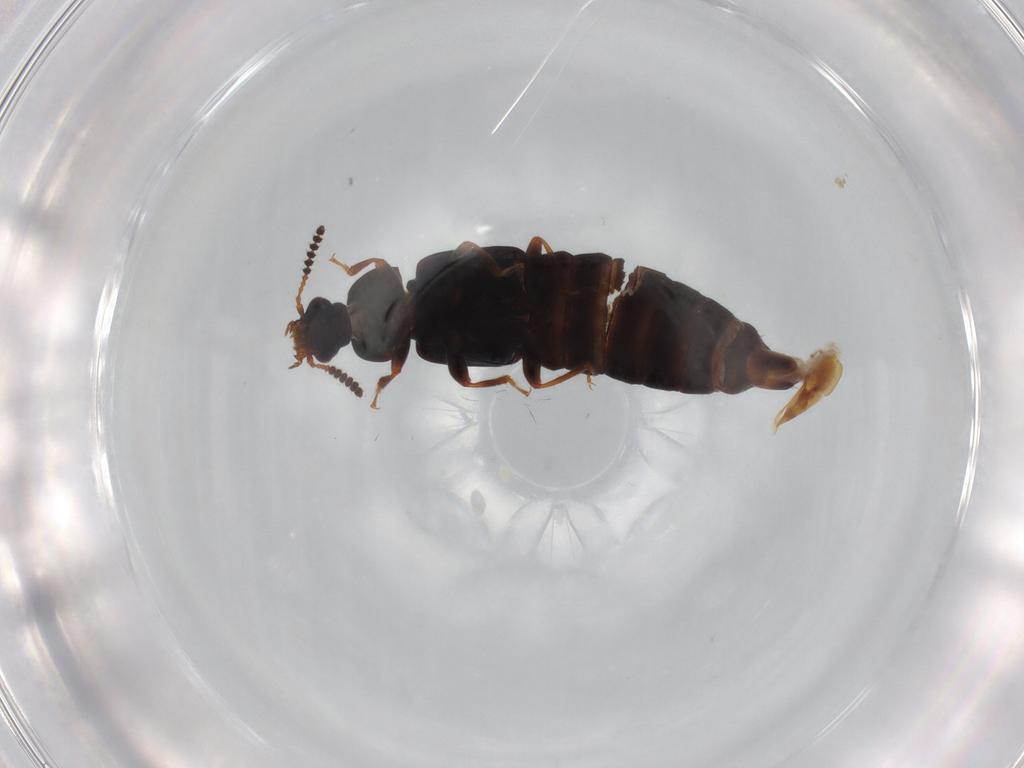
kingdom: Animalia
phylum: Arthropoda
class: Insecta
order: Coleoptera
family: Staphylinidae
